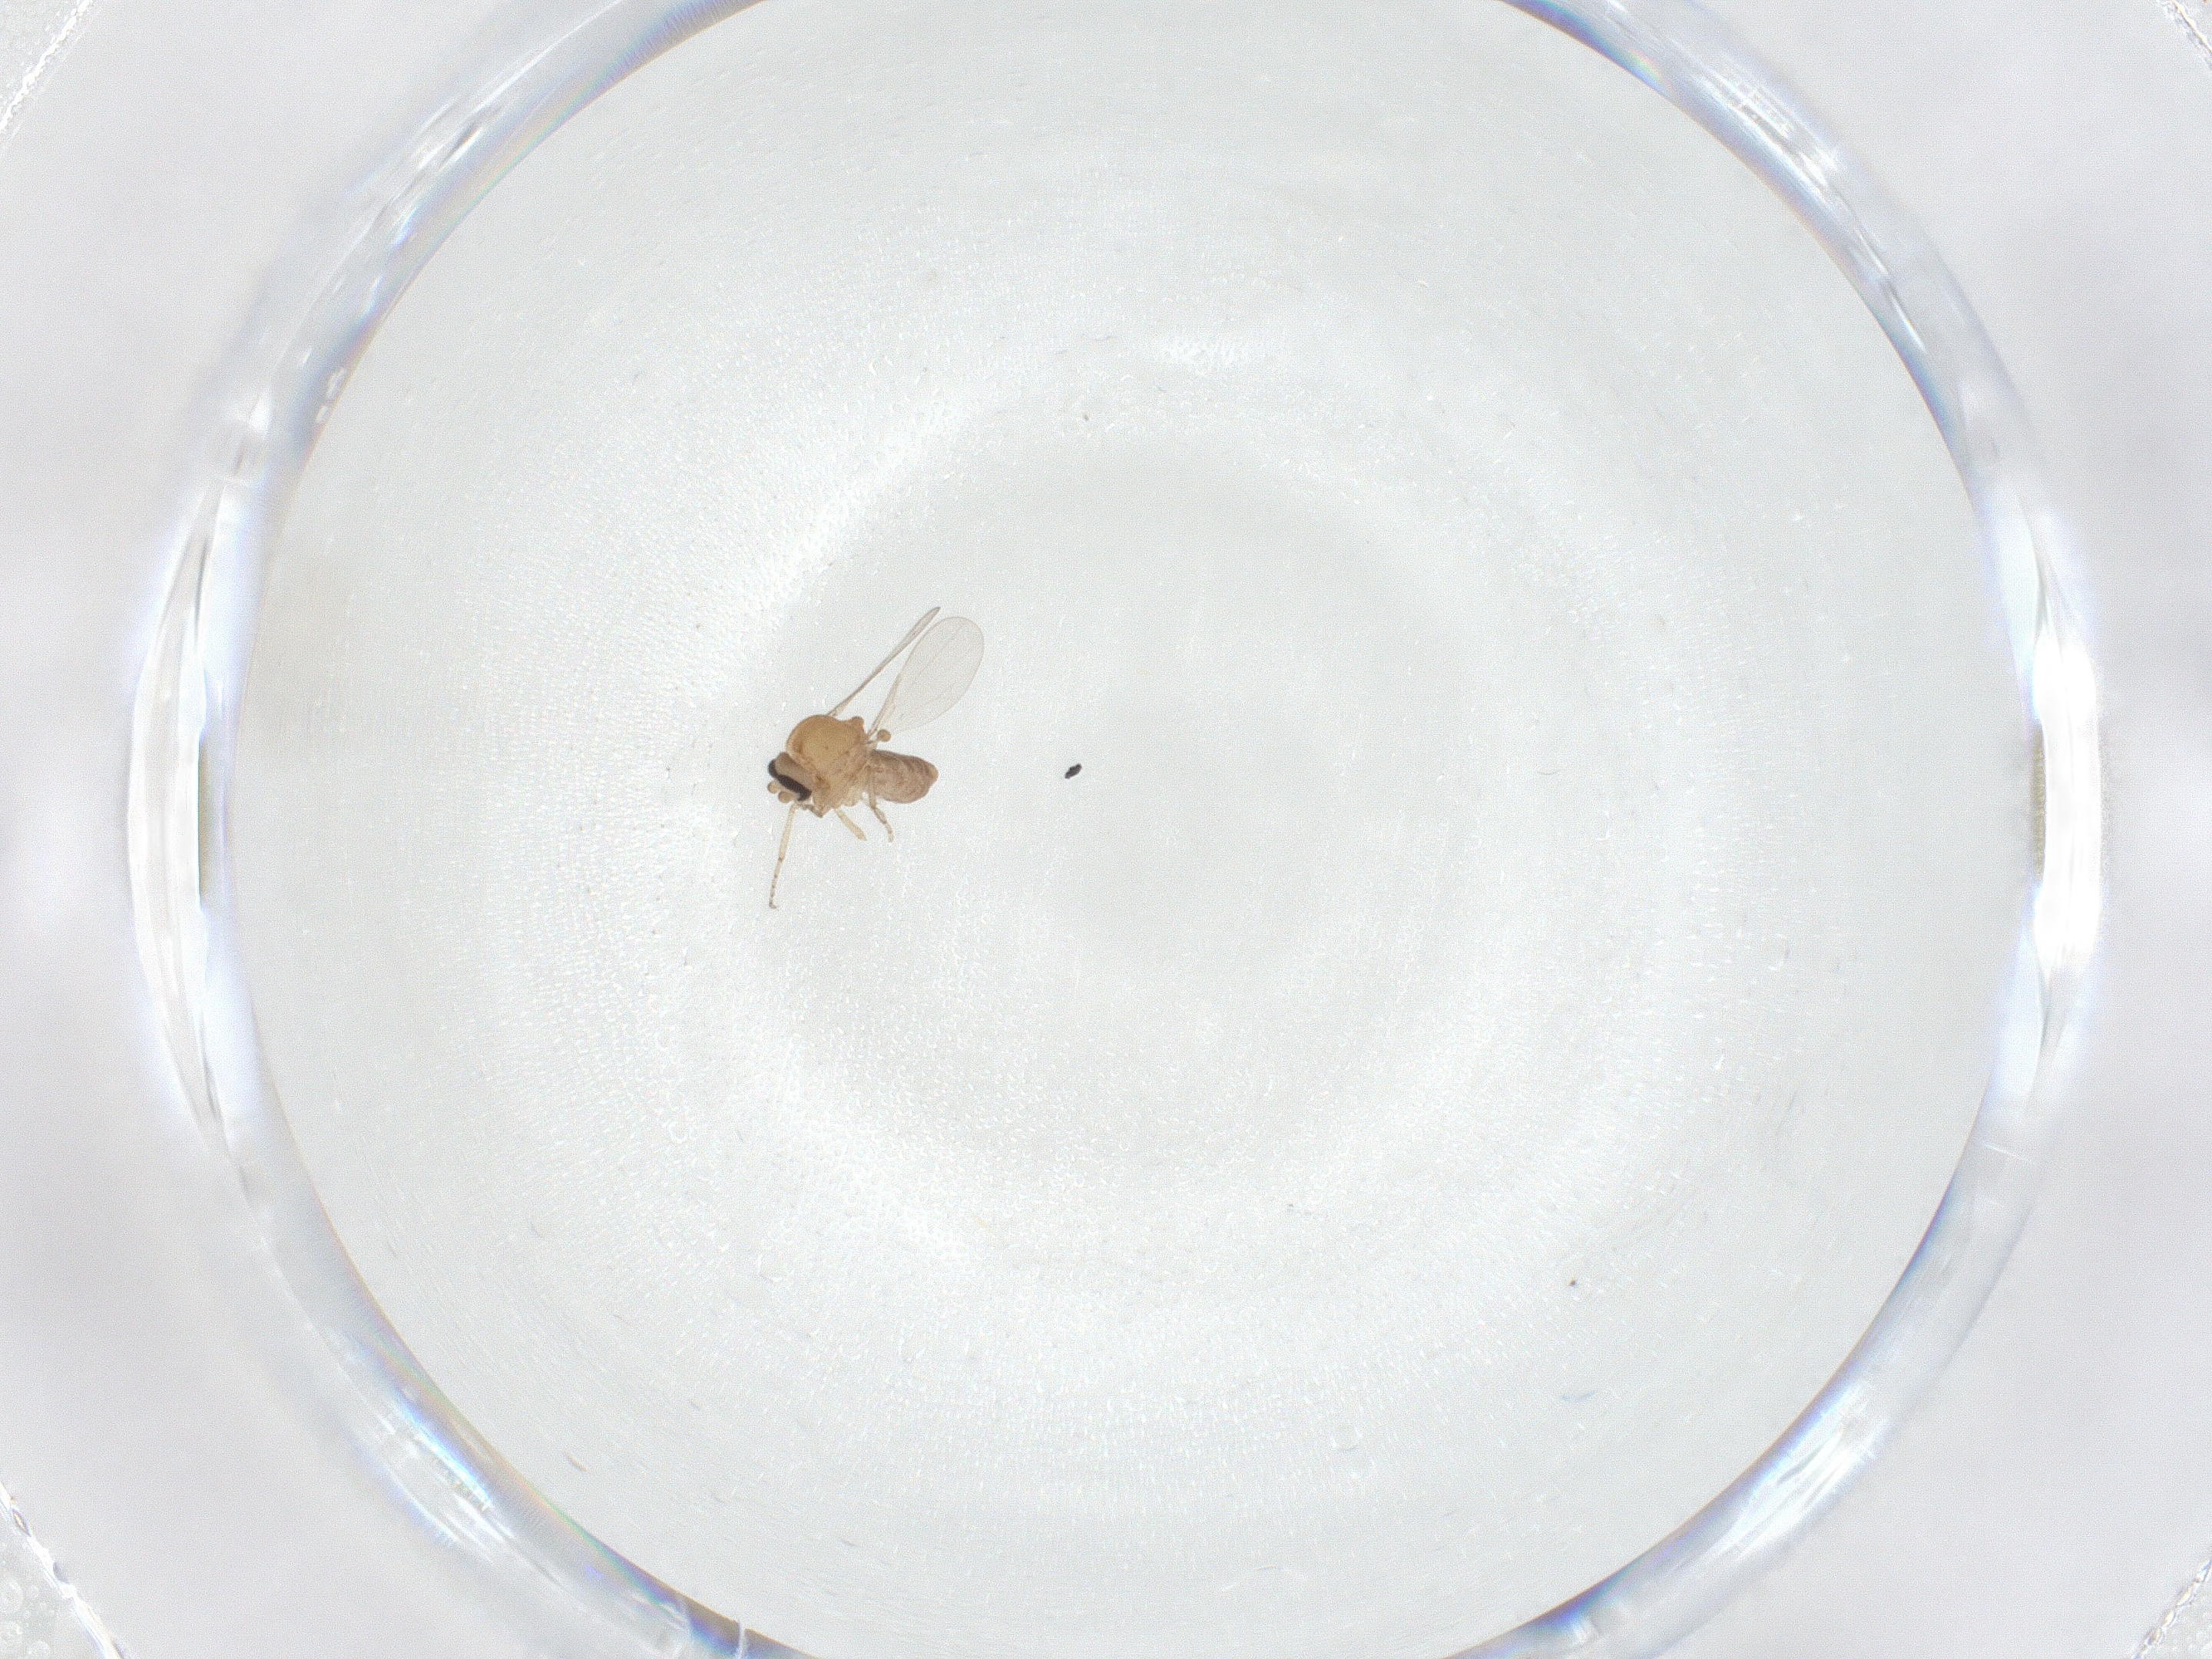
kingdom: Animalia
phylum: Arthropoda
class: Insecta
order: Diptera
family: Ceratopogonidae
